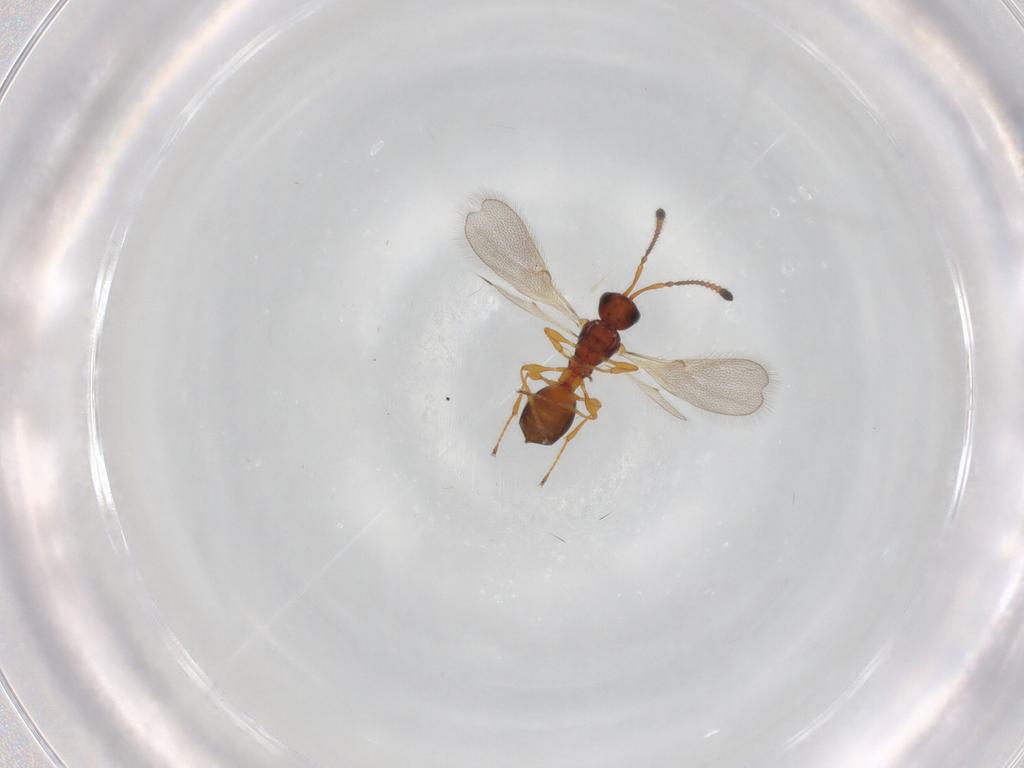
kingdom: Animalia
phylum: Arthropoda
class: Insecta
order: Hymenoptera
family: Diapriidae
